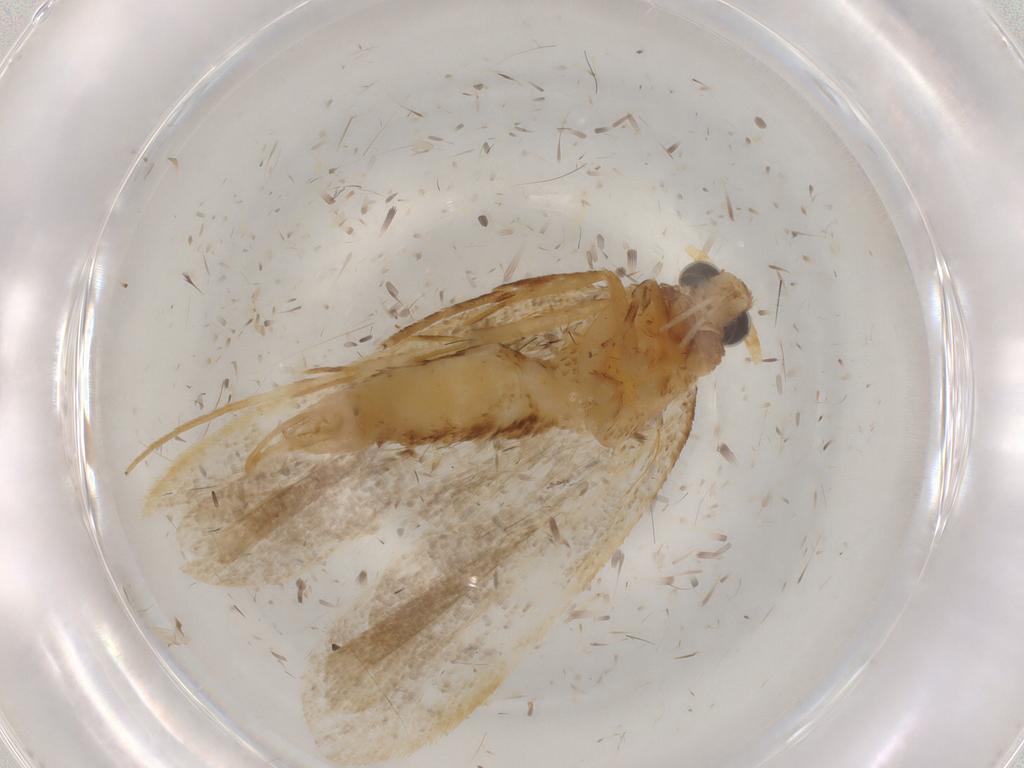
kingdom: Animalia
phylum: Arthropoda
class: Insecta
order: Lepidoptera
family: Lecithoceridae
